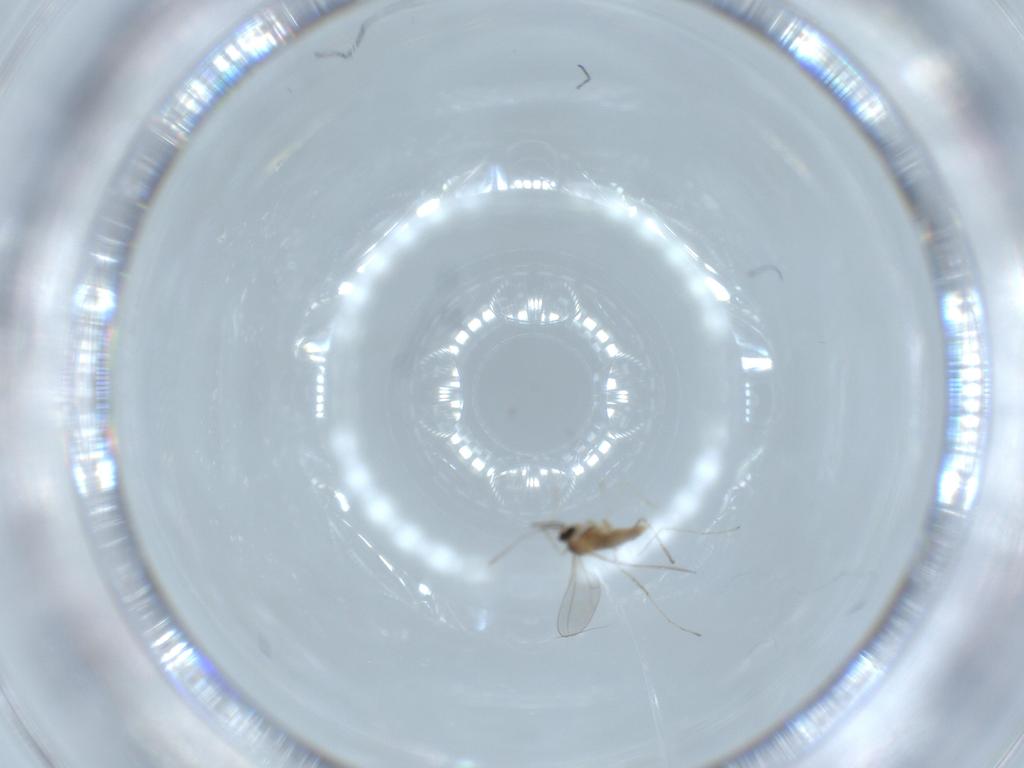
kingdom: Animalia
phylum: Arthropoda
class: Insecta
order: Diptera
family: Cecidomyiidae
